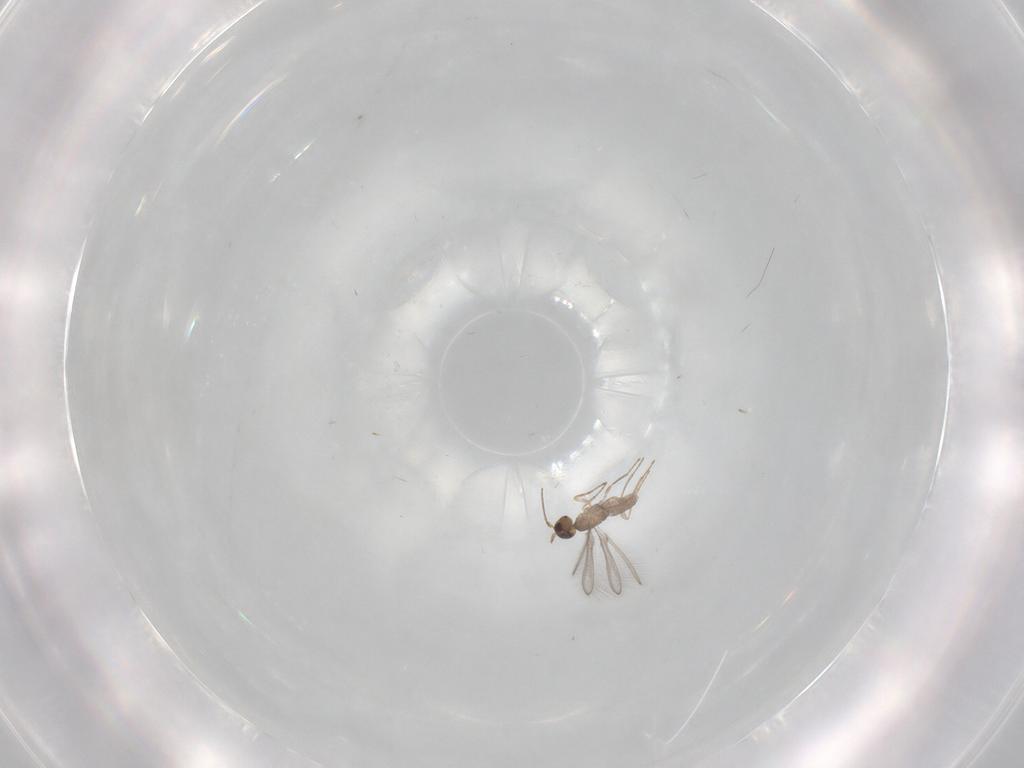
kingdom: Animalia
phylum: Arthropoda
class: Insecta
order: Hymenoptera
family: Mymaridae
